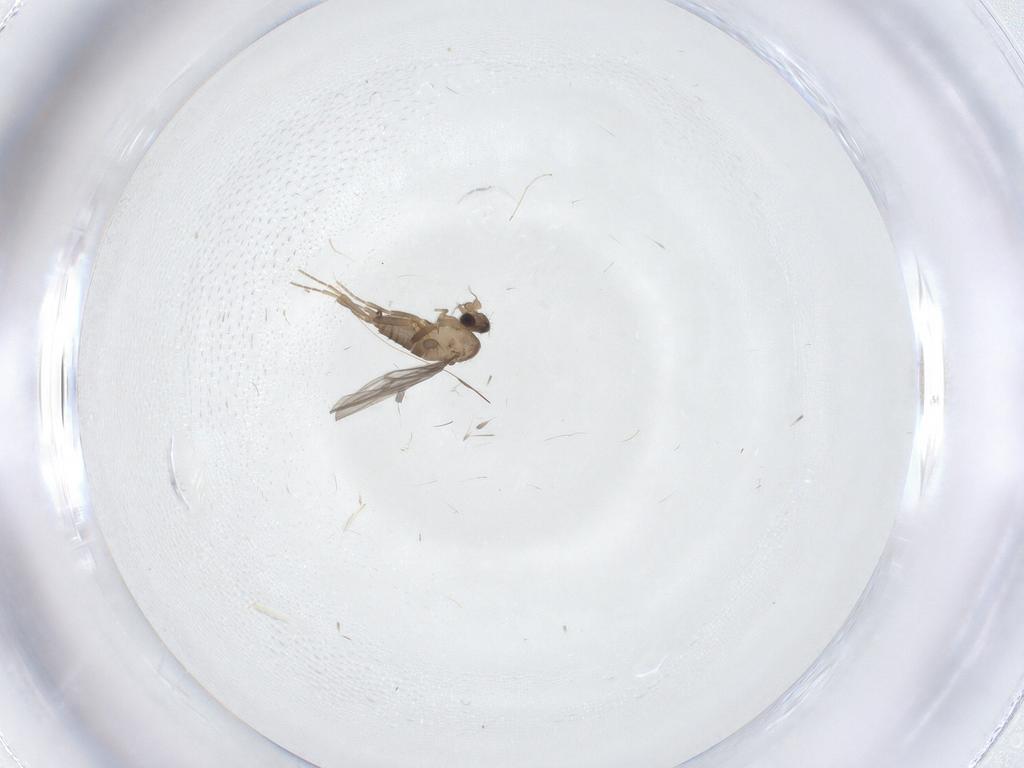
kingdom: Animalia
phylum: Arthropoda
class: Insecta
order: Diptera
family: Cecidomyiidae
